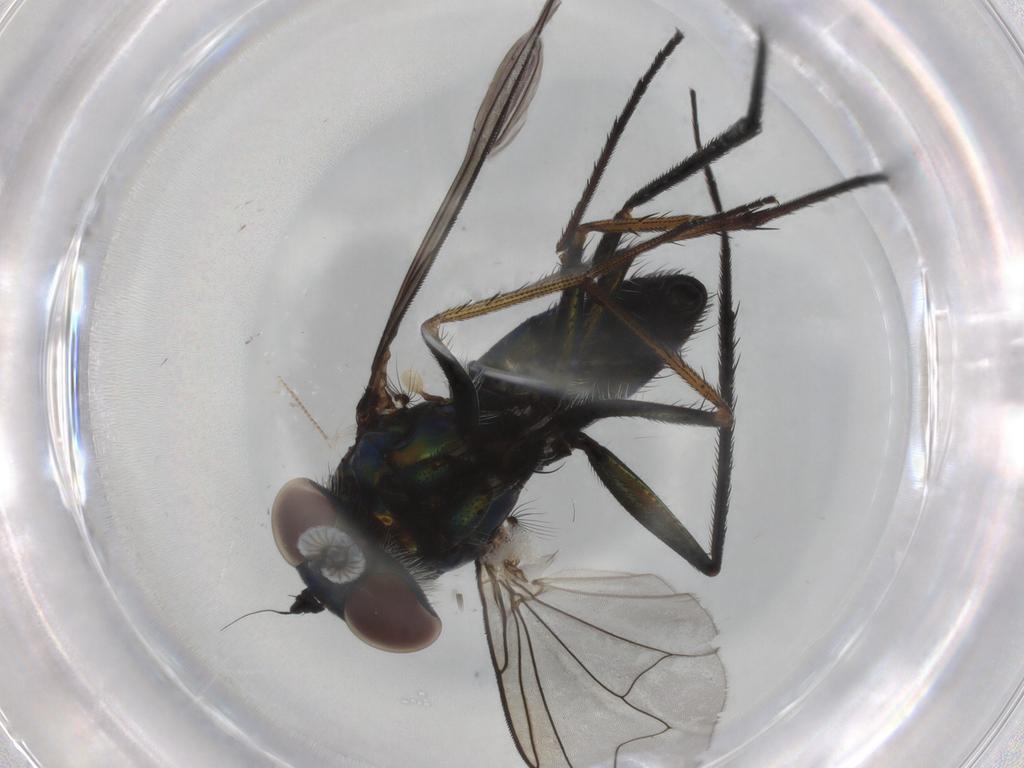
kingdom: Animalia
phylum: Arthropoda
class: Insecta
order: Diptera
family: Dolichopodidae
